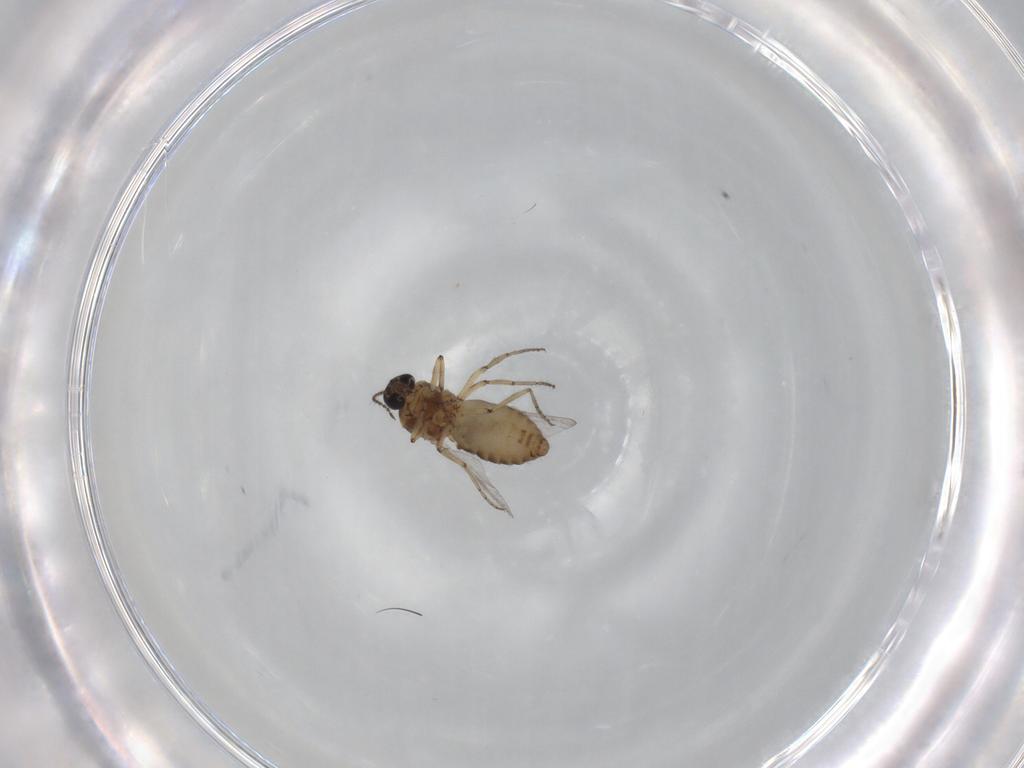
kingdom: Animalia
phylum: Arthropoda
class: Insecta
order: Diptera
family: Ceratopogonidae
